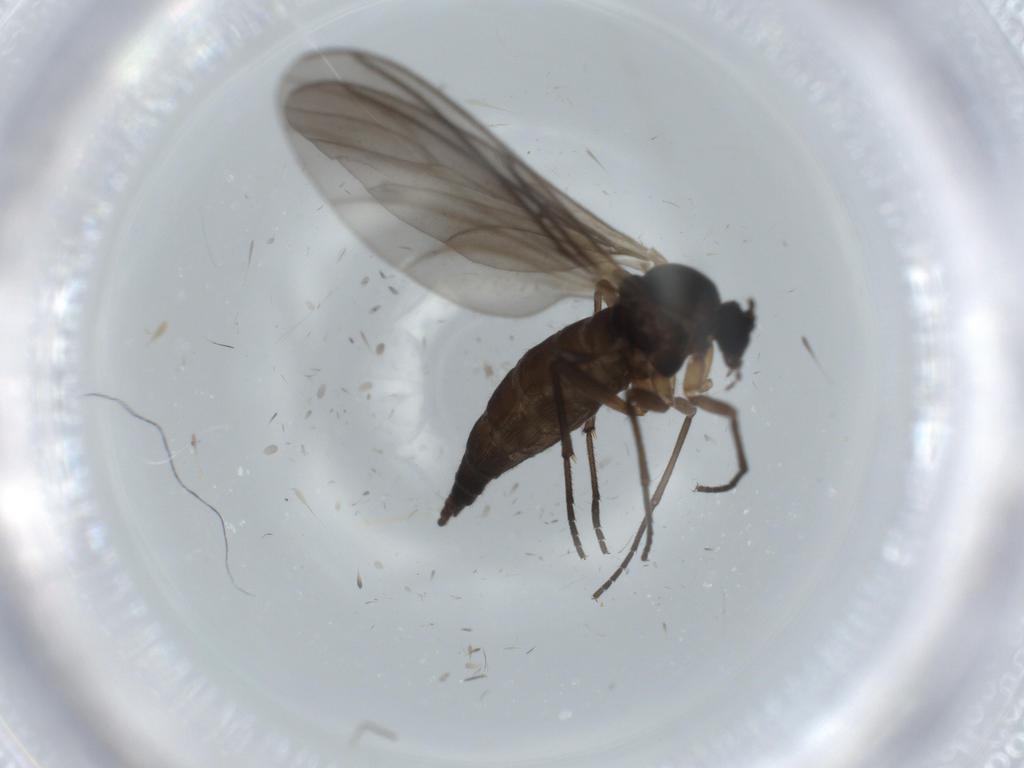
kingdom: Animalia
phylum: Arthropoda
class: Insecta
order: Diptera
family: Sciaridae
